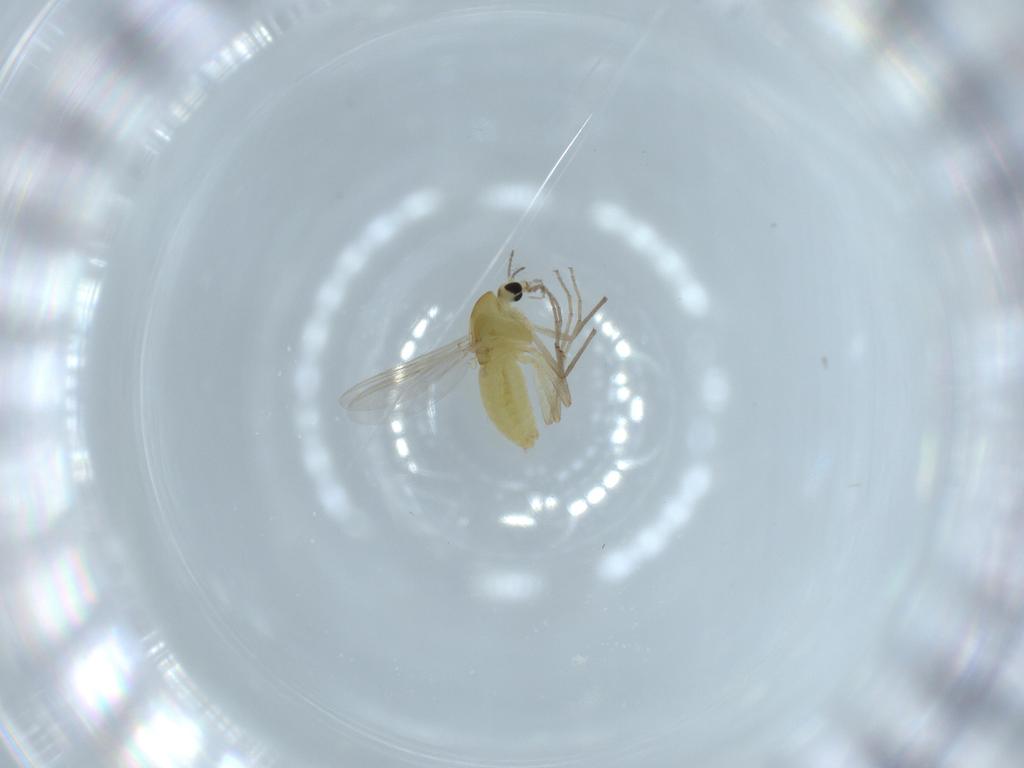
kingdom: Animalia
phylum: Arthropoda
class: Insecta
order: Diptera
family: Chironomidae
